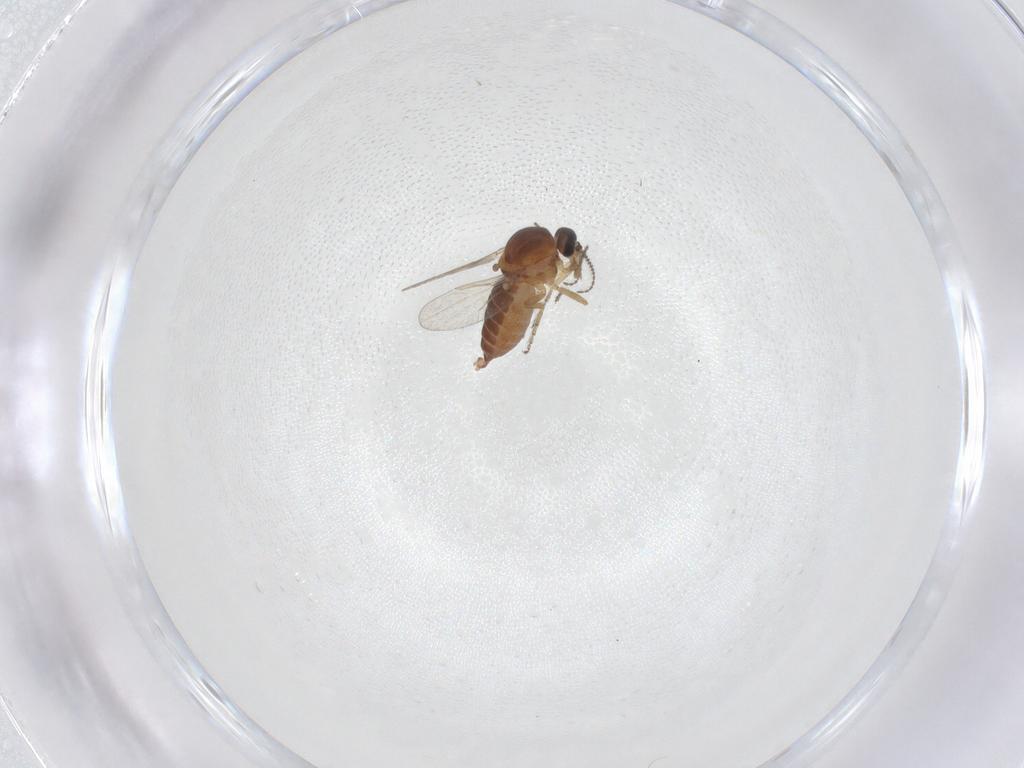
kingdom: Animalia
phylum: Arthropoda
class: Insecta
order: Diptera
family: Ceratopogonidae
